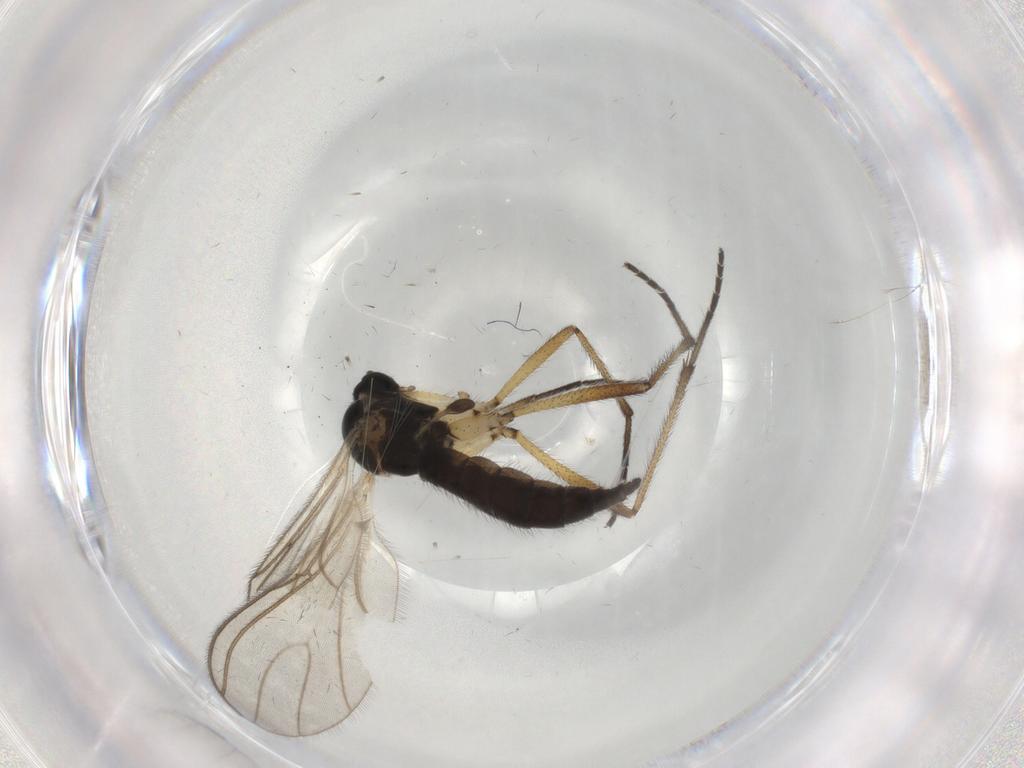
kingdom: Animalia
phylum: Arthropoda
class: Insecta
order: Diptera
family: Sciaridae
